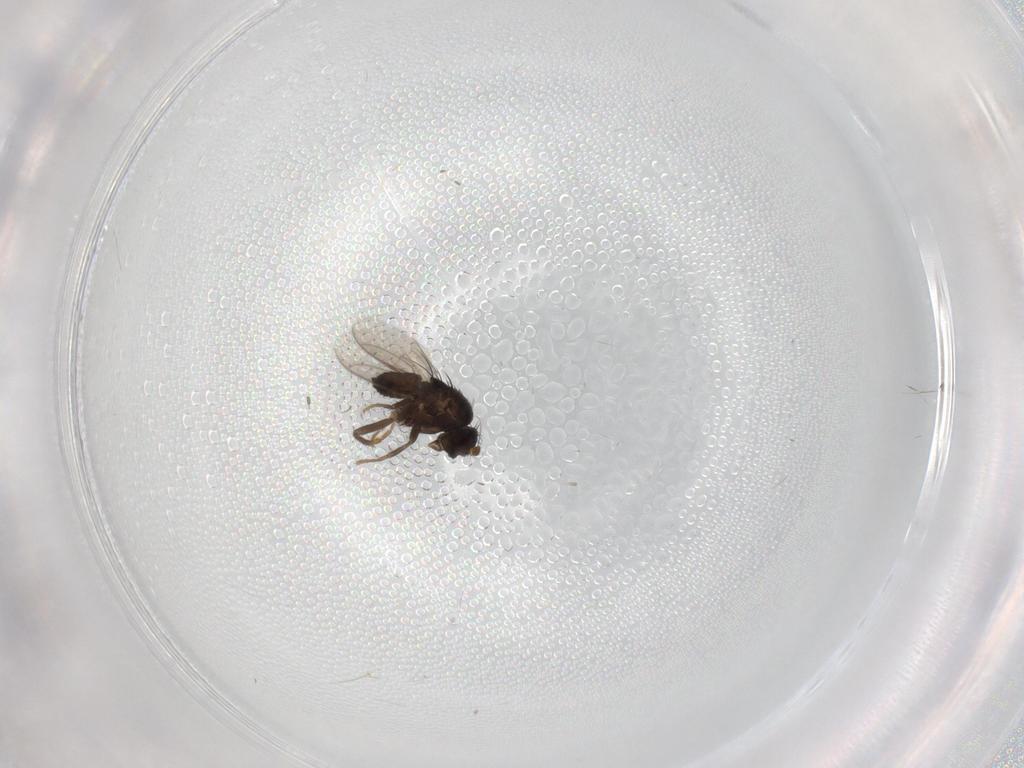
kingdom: Animalia
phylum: Arthropoda
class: Insecta
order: Diptera
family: Sphaeroceridae
